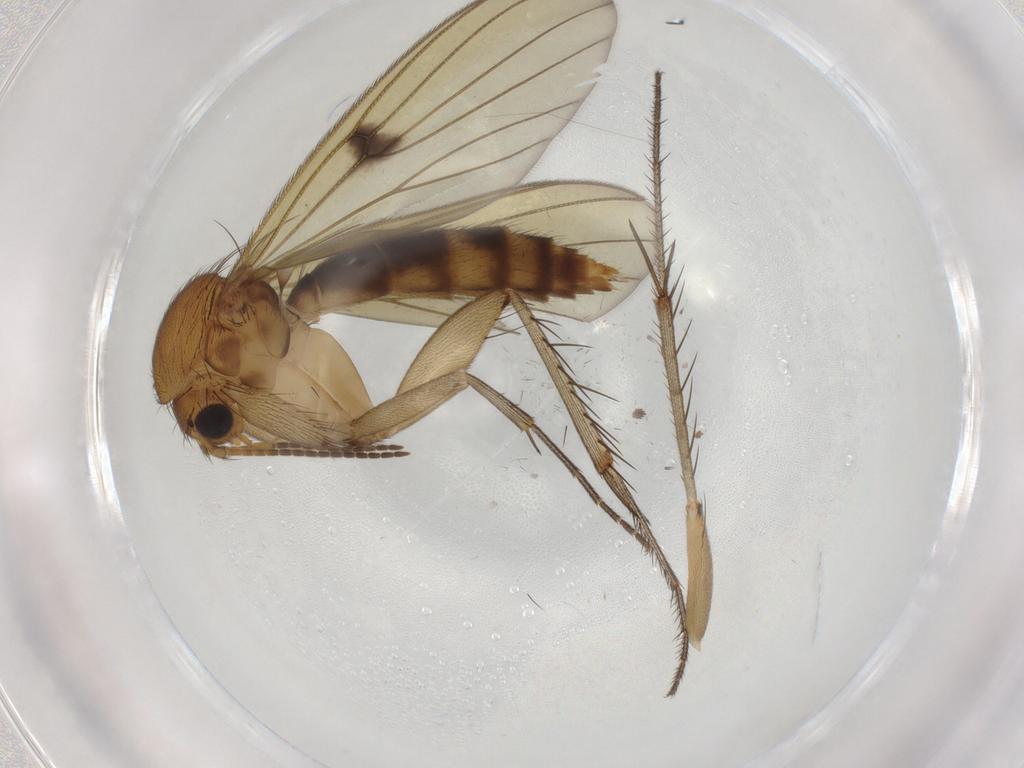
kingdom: Animalia
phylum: Arthropoda
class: Insecta
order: Diptera
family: Mycetophilidae
